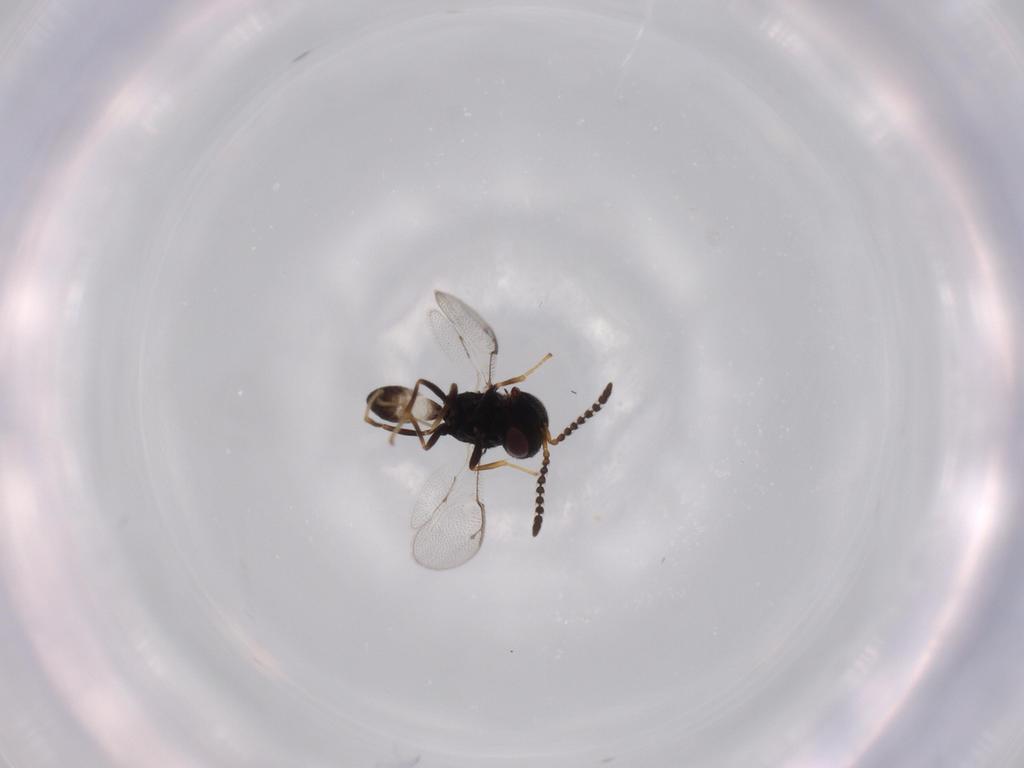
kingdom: Animalia
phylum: Arthropoda
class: Insecta
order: Hymenoptera
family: Pteromalidae
